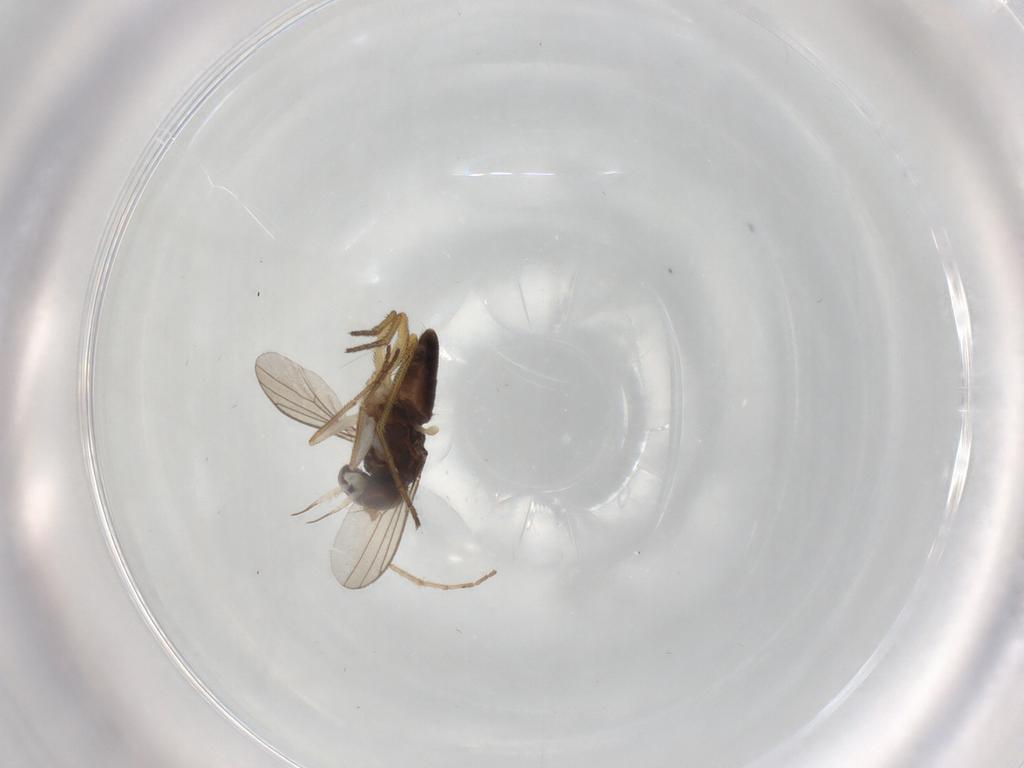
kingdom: Animalia
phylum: Arthropoda
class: Insecta
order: Diptera
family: Dolichopodidae
